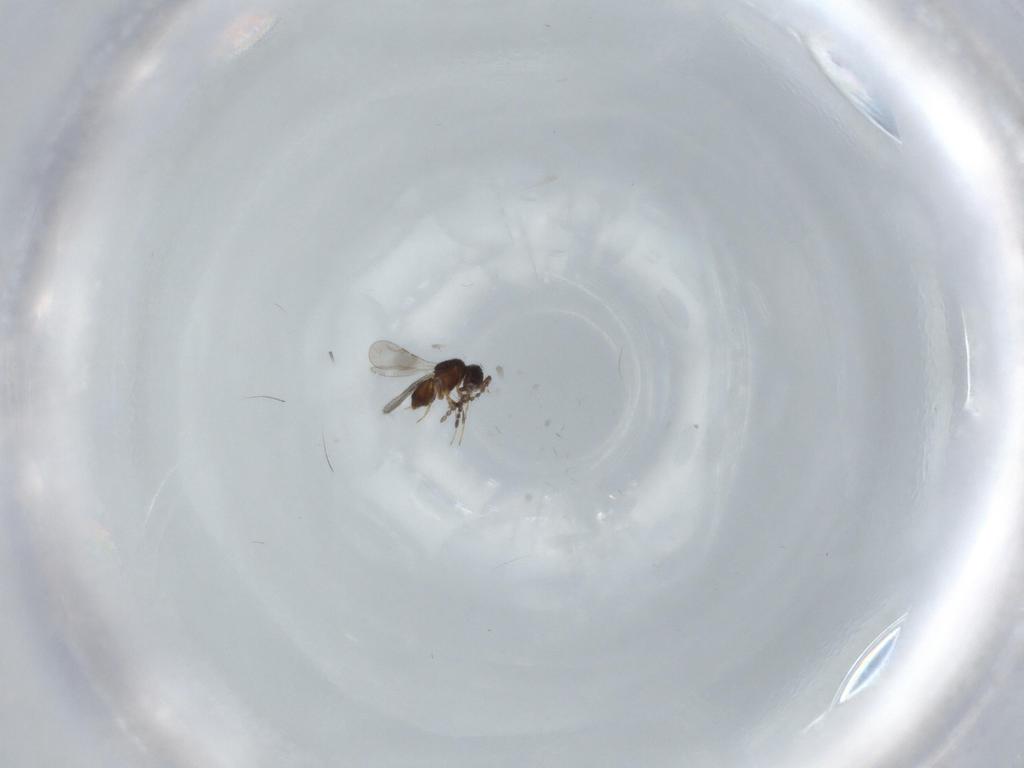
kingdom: Animalia
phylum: Arthropoda
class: Insecta
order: Hymenoptera
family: Ceraphronidae
